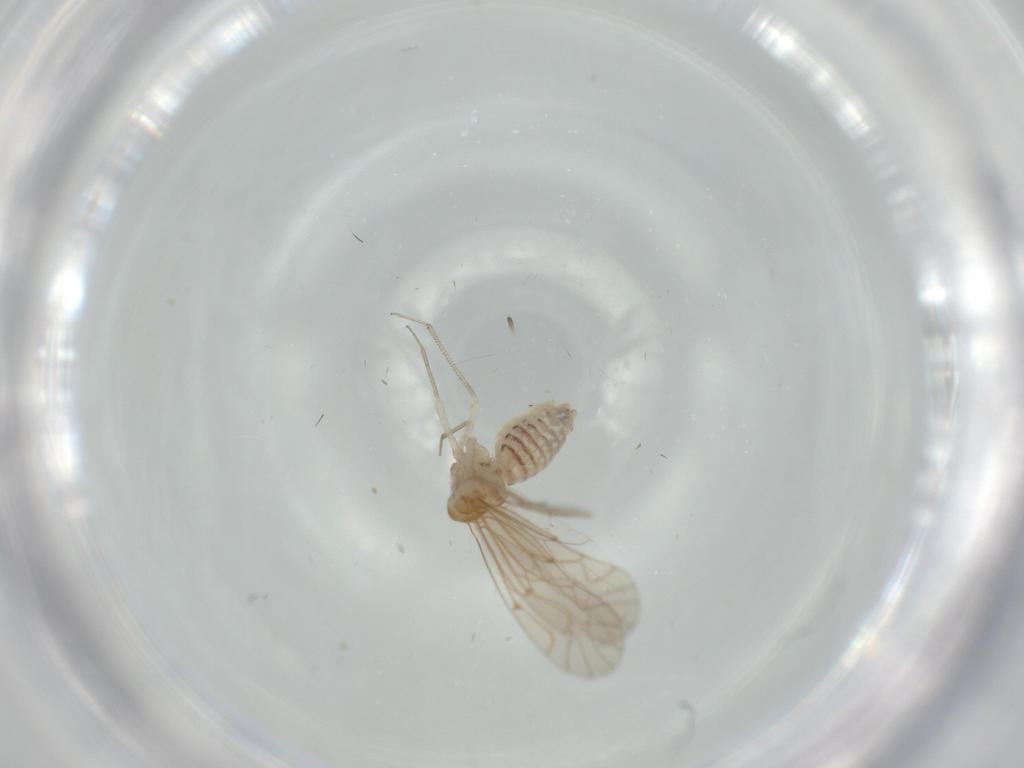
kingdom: Animalia
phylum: Arthropoda
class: Insecta
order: Psocodea
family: Lachesillidae
